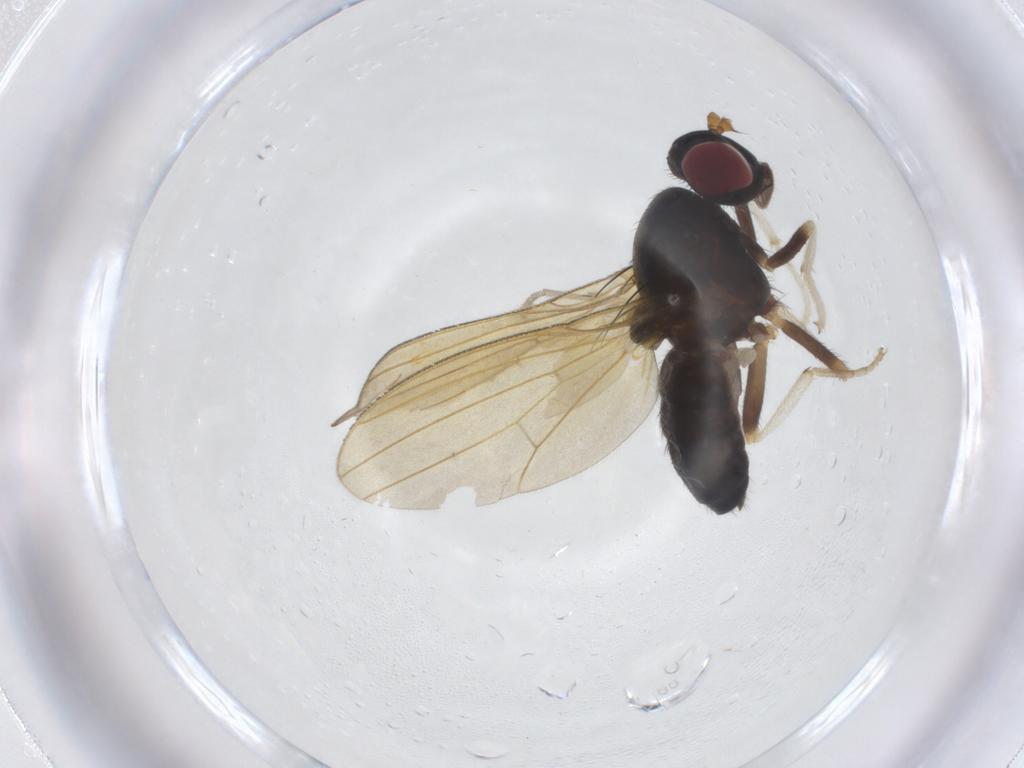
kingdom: Animalia
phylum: Arthropoda
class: Insecta
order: Diptera
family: Lauxaniidae
